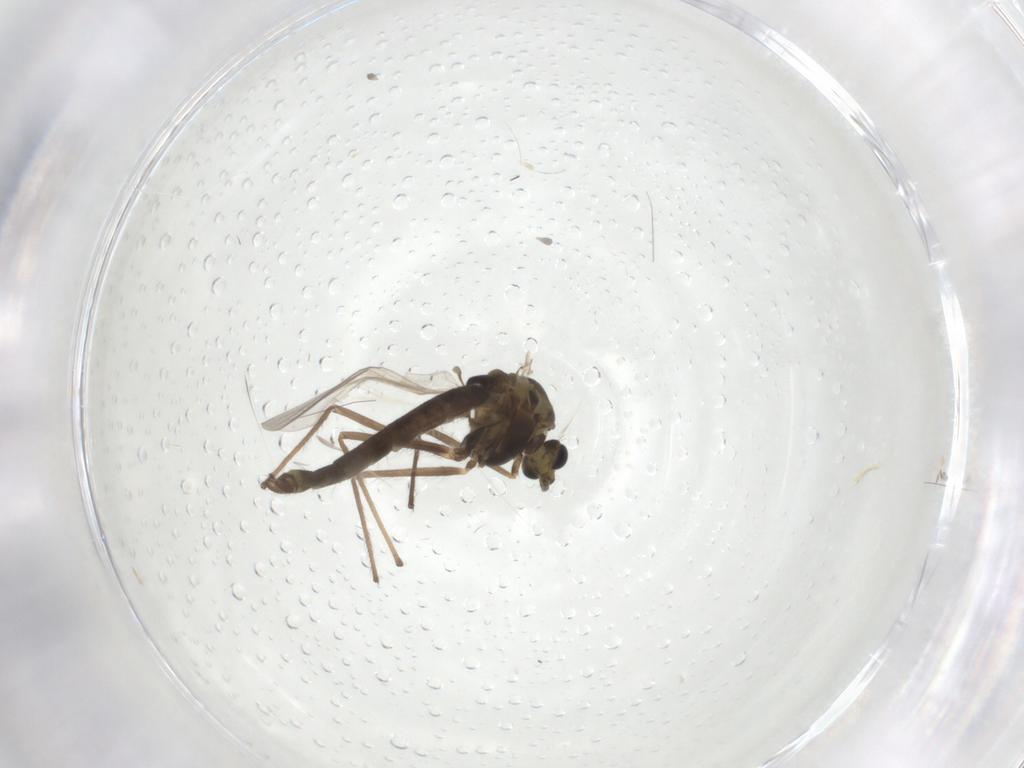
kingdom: Animalia
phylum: Arthropoda
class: Insecta
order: Diptera
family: Chironomidae
